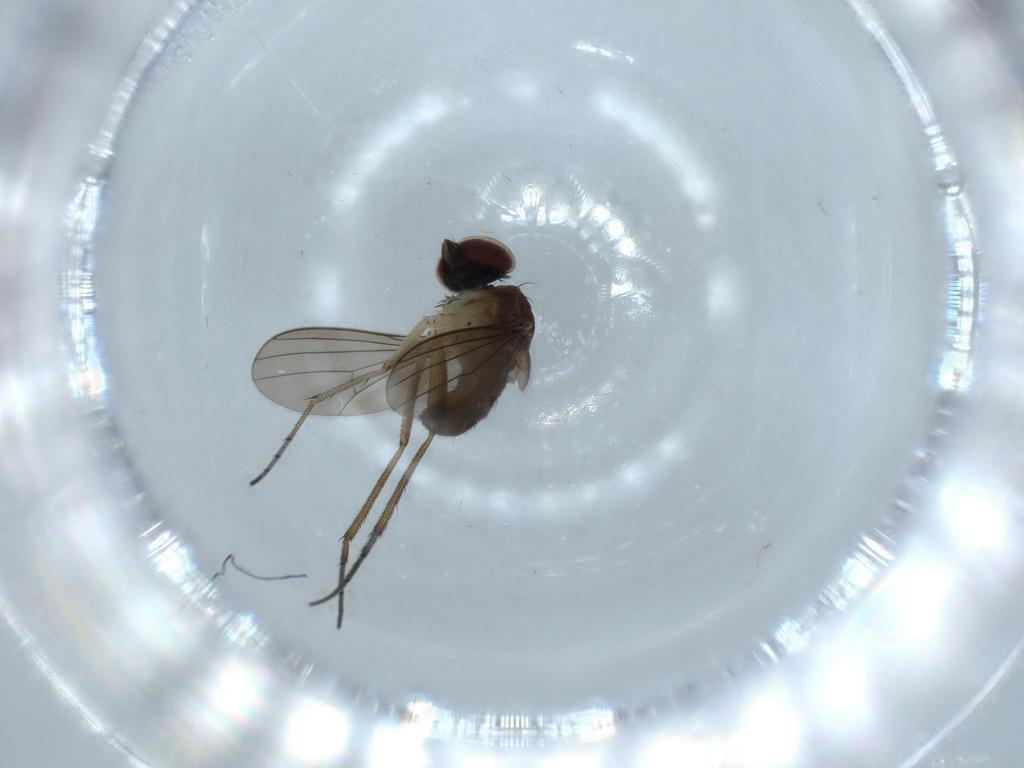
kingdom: Animalia
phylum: Arthropoda
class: Insecta
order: Diptera
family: Dolichopodidae
